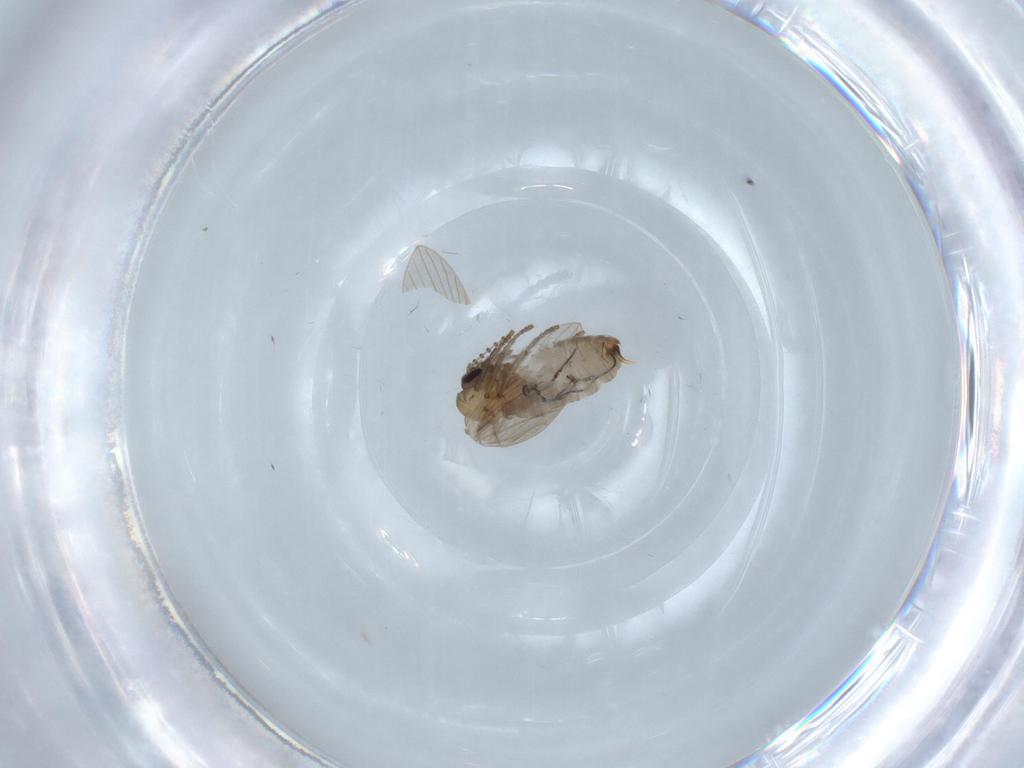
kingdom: Animalia
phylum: Arthropoda
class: Insecta
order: Diptera
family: Psychodidae
